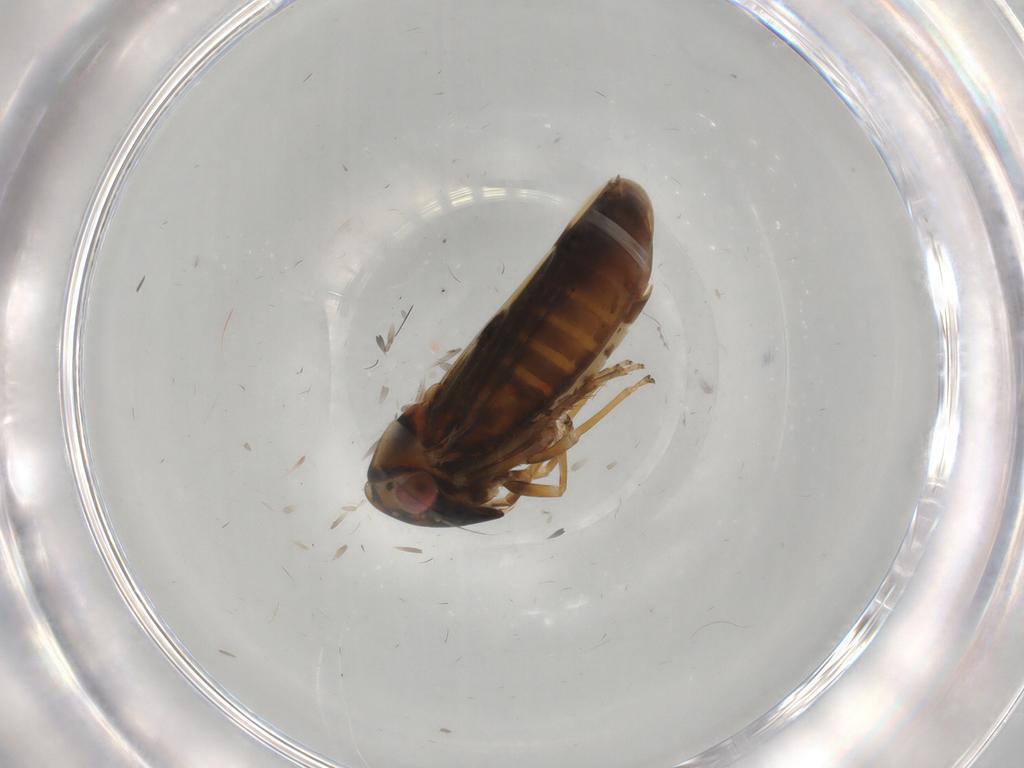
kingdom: Animalia
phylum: Arthropoda
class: Insecta
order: Hemiptera
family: Cicadellidae
